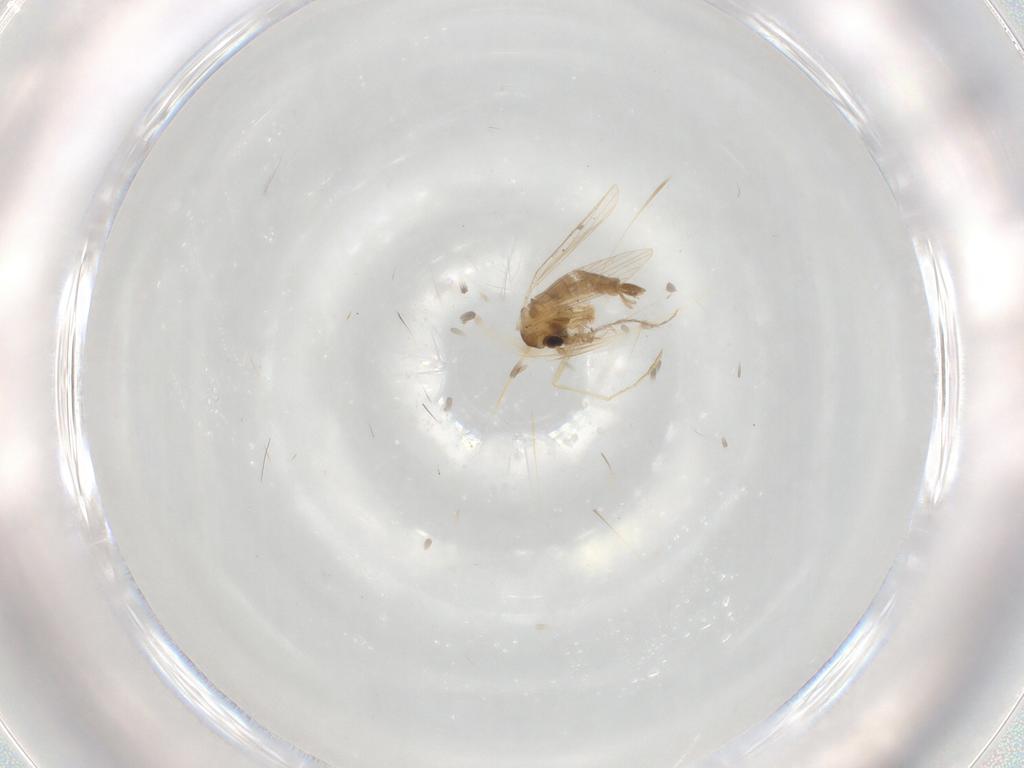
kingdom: Animalia
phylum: Arthropoda
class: Insecta
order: Diptera
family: Psychodidae
